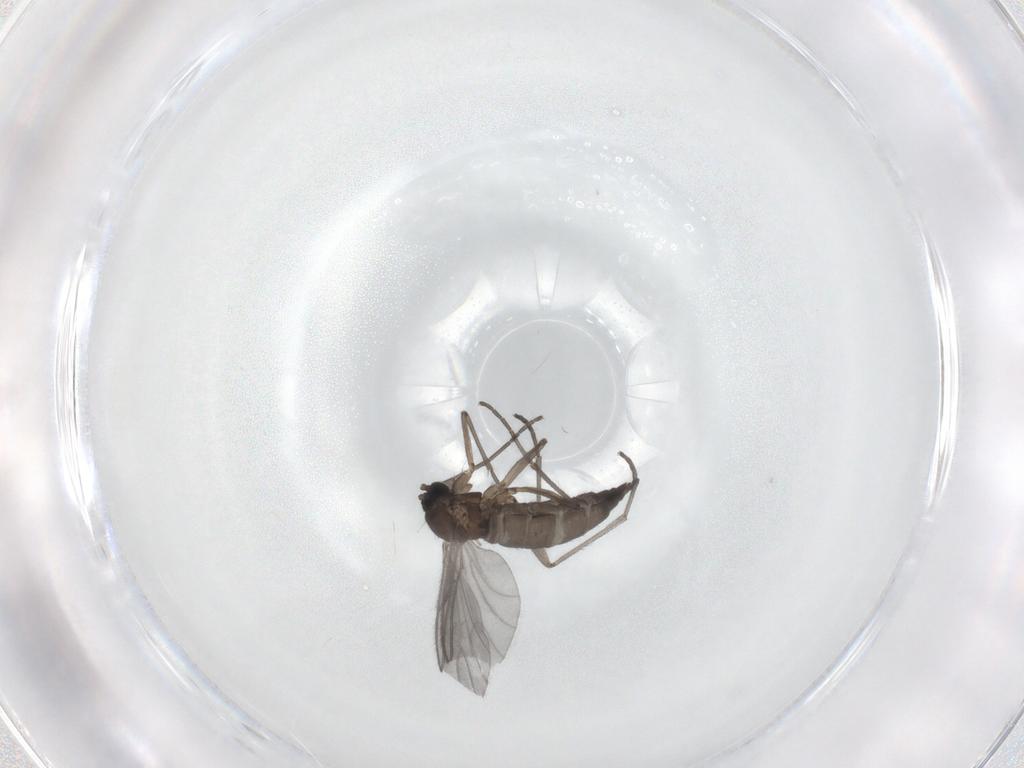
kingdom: Animalia
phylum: Arthropoda
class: Insecta
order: Diptera
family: Sciaridae
